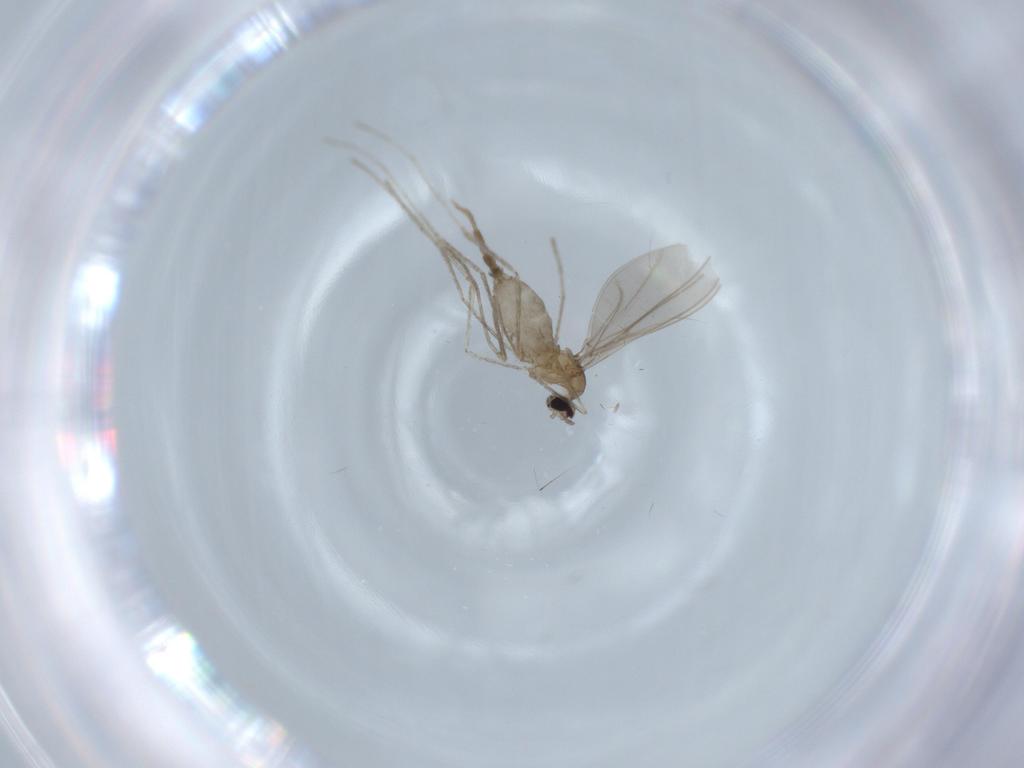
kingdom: Animalia
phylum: Arthropoda
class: Insecta
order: Diptera
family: Cecidomyiidae
